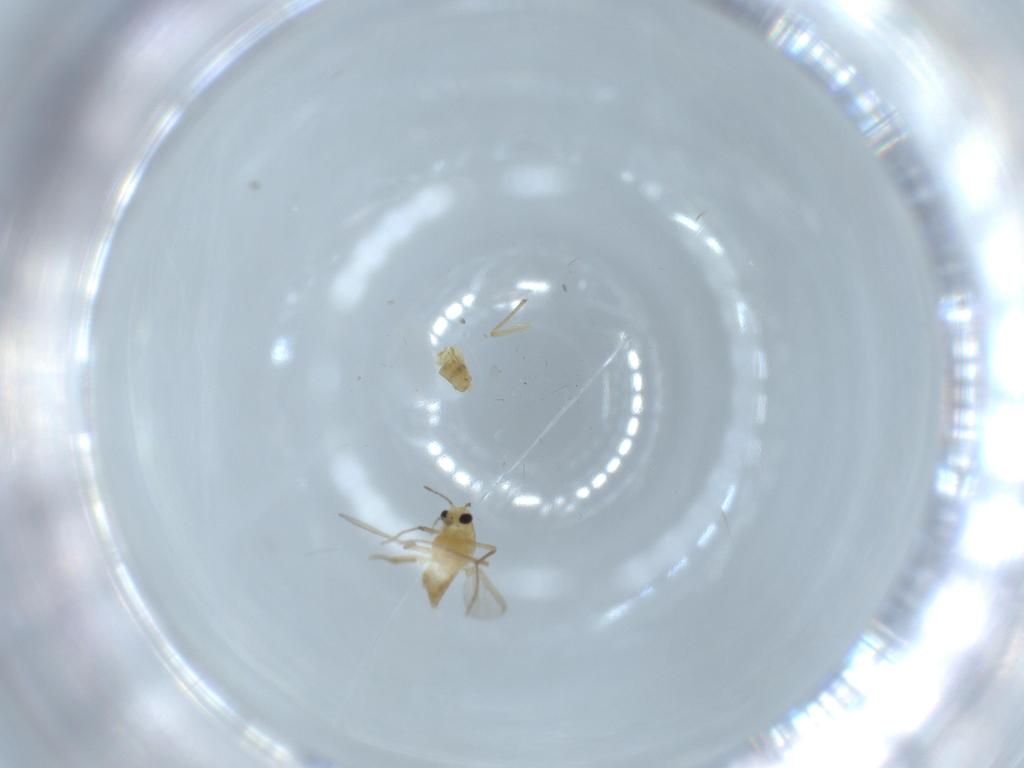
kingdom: Animalia
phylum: Arthropoda
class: Insecta
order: Diptera
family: Chironomidae
